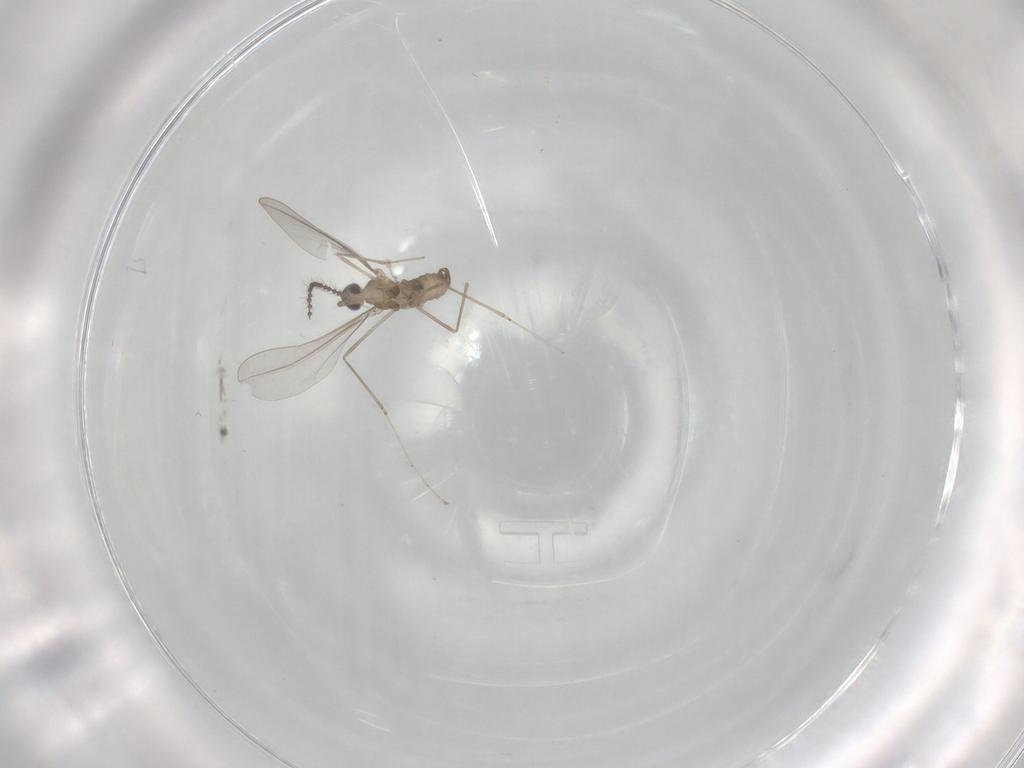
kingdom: Animalia
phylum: Arthropoda
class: Insecta
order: Diptera
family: Cecidomyiidae
